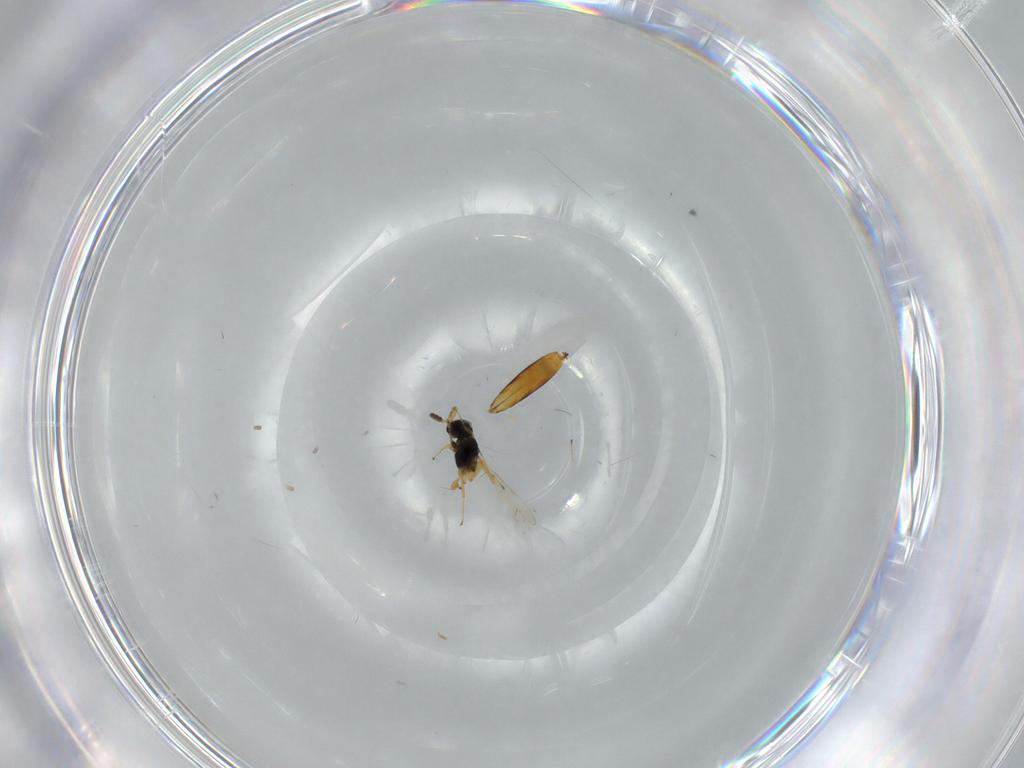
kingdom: Animalia
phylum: Arthropoda
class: Insecta
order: Hymenoptera
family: Scelionidae
